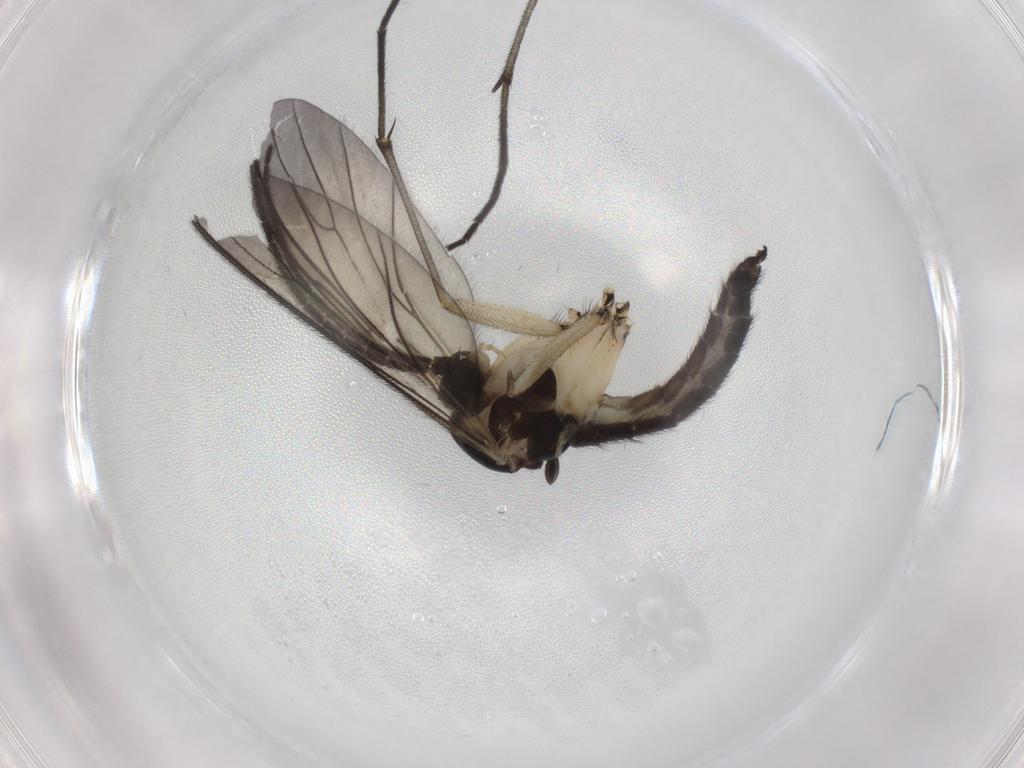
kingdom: Animalia
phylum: Arthropoda
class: Insecta
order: Diptera
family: Sciaridae
